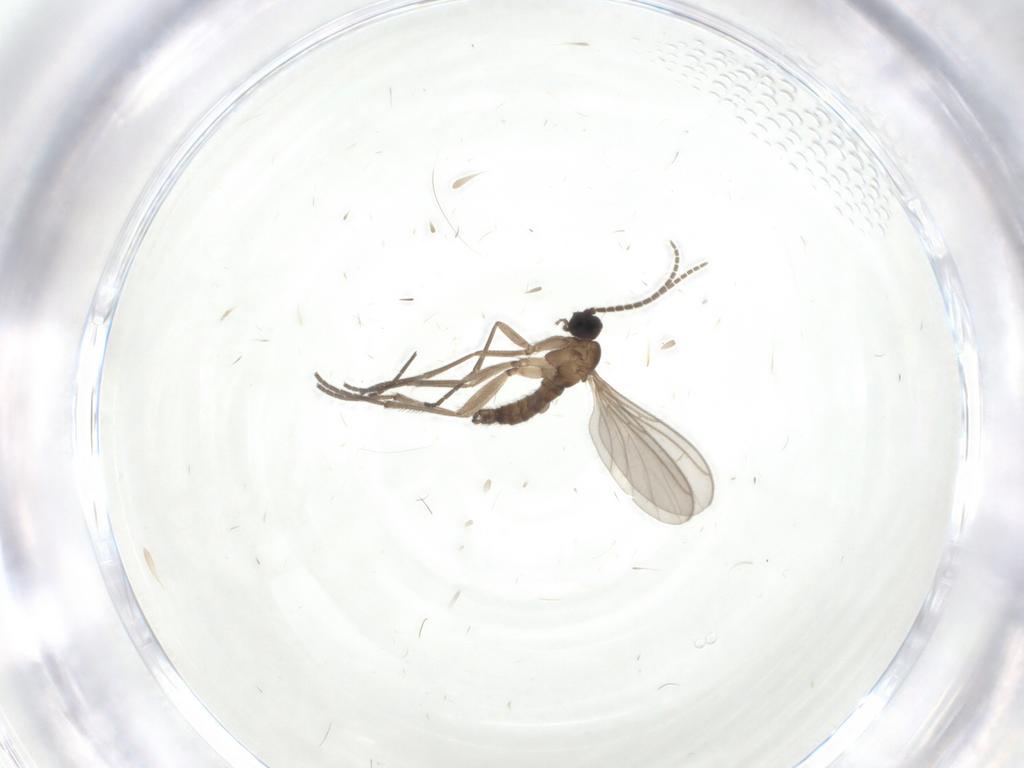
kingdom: Animalia
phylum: Arthropoda
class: Insecta
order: Diptera
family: Sciaridae
